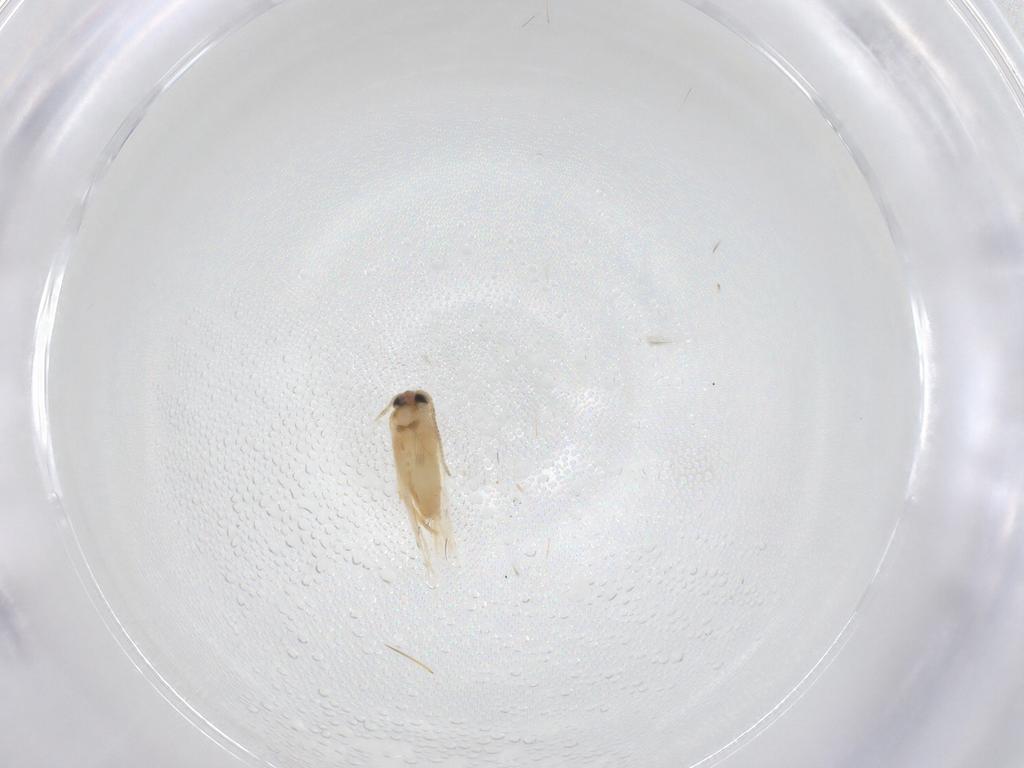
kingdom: Animalia
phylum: Arthropoda
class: Insecta
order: Lepidoptera
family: Crambidae
